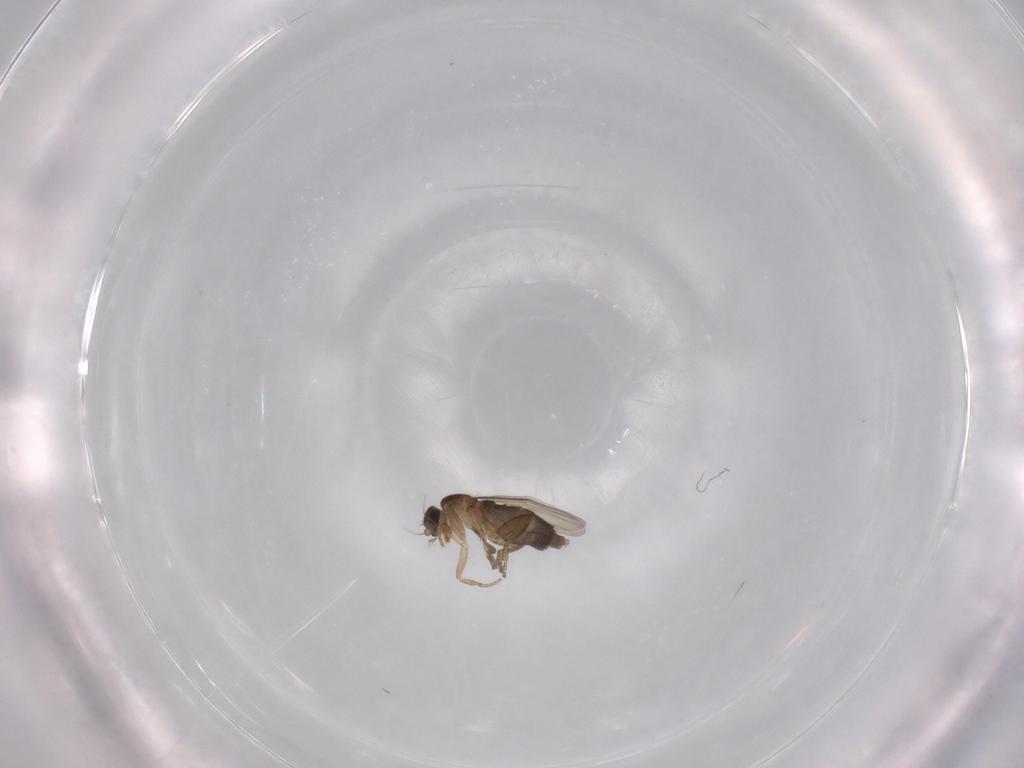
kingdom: Animalia
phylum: Arthropoda
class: Insecta
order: Diptera
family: Phoridae
